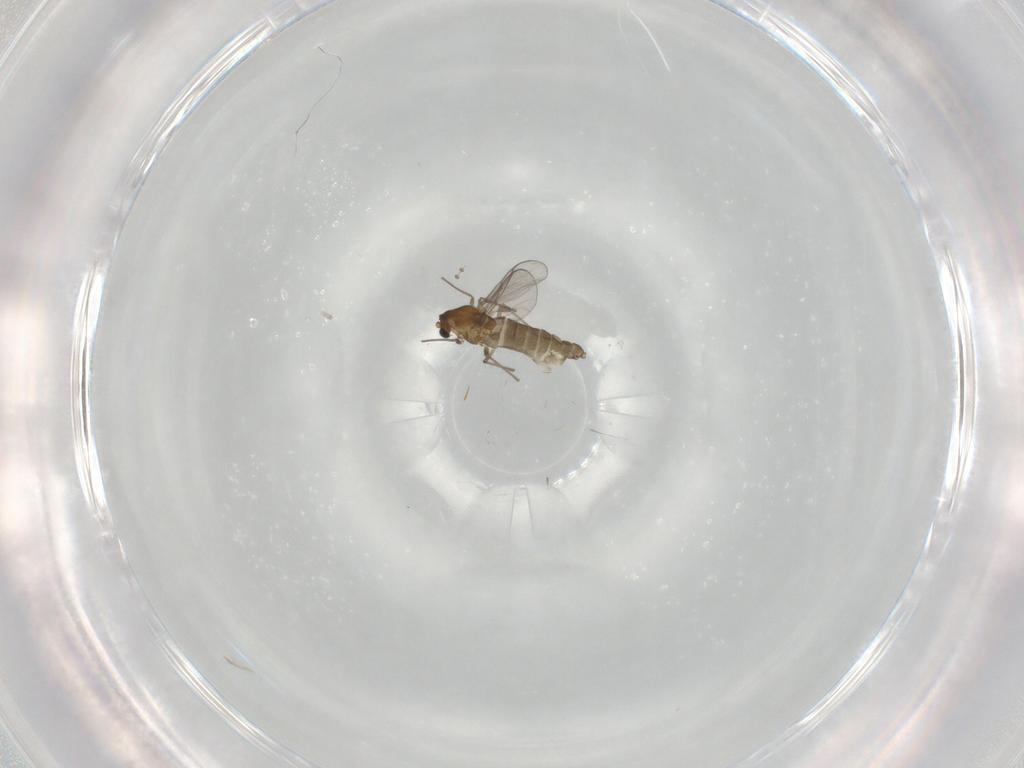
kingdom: Animalia
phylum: Arthropoda
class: Insecta
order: Diptera
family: Chironomidae
